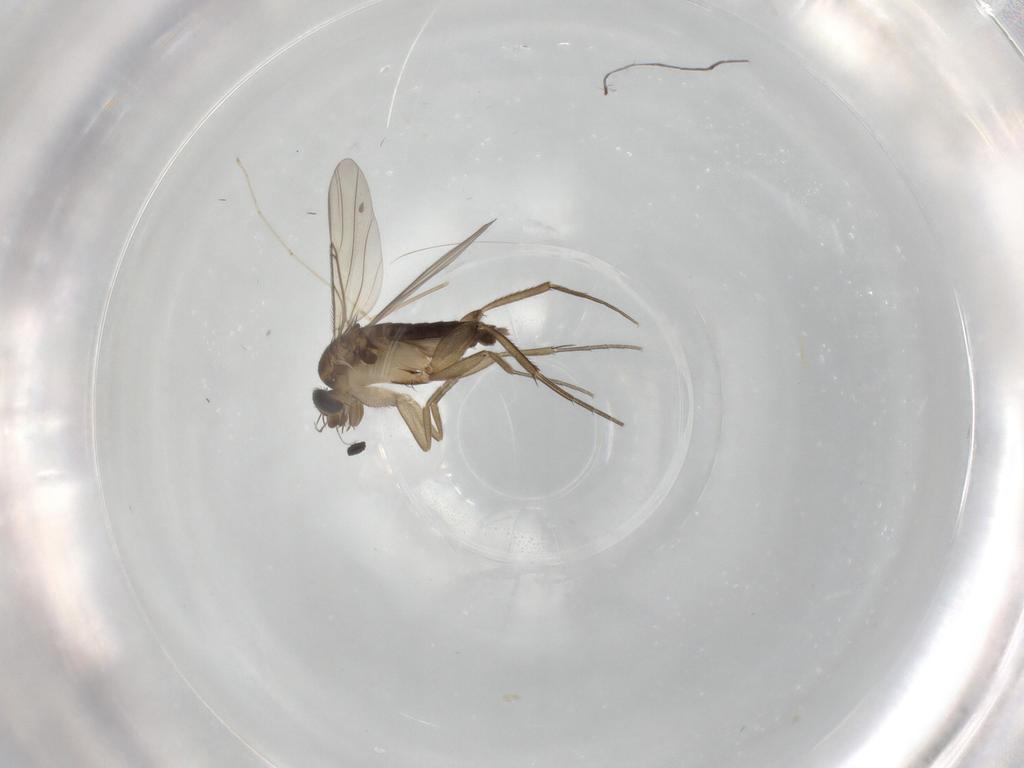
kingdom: Animalia
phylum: Arthropoda
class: Insecta
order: Diptera
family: Phoridae
